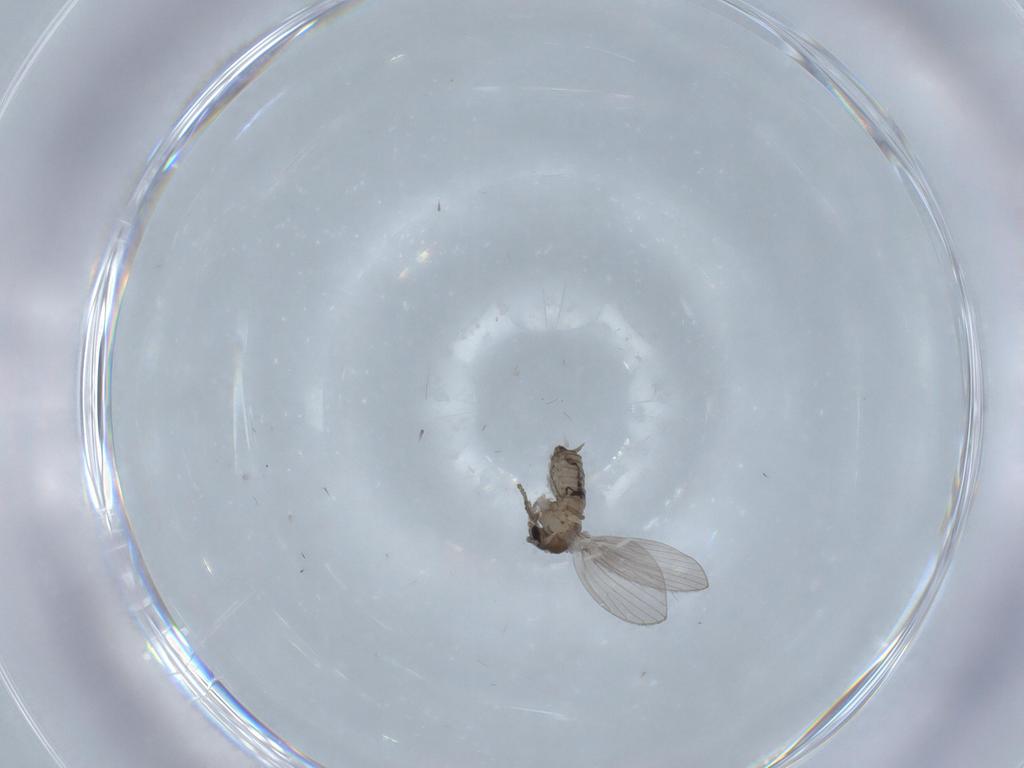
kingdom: Animalia
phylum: Arthropoda
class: Insecta
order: Diptera
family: Psychodidae
